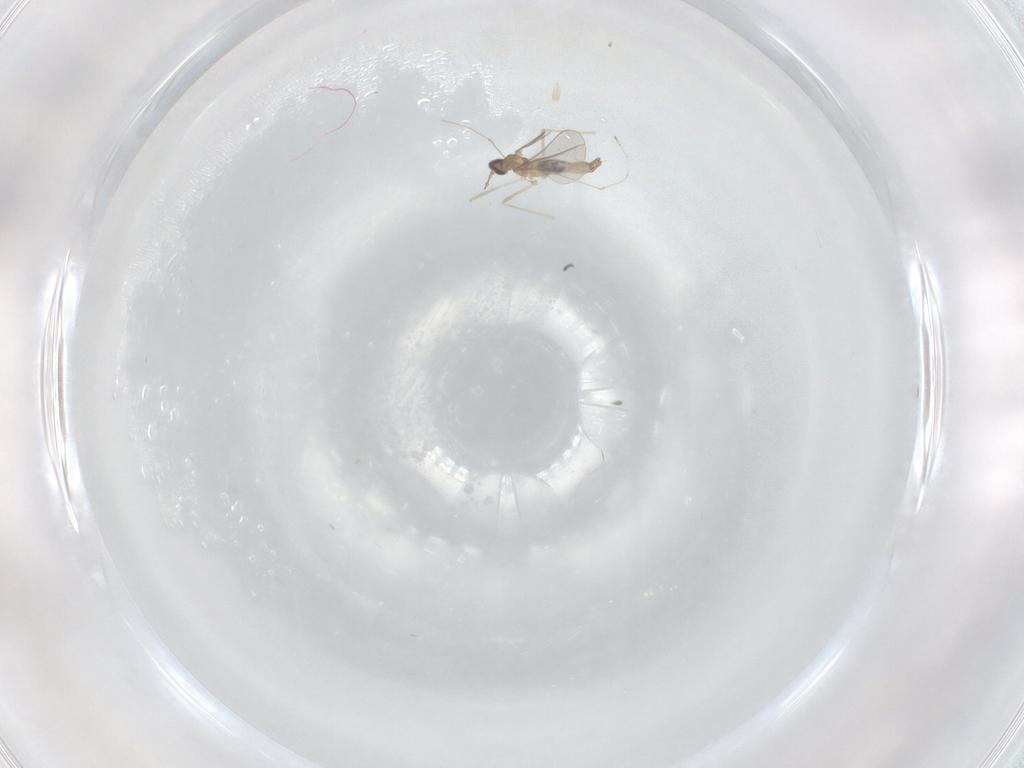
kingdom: Animalia
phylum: Arthropoda
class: Insecta
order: Diptera
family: Cecidomyiidae
